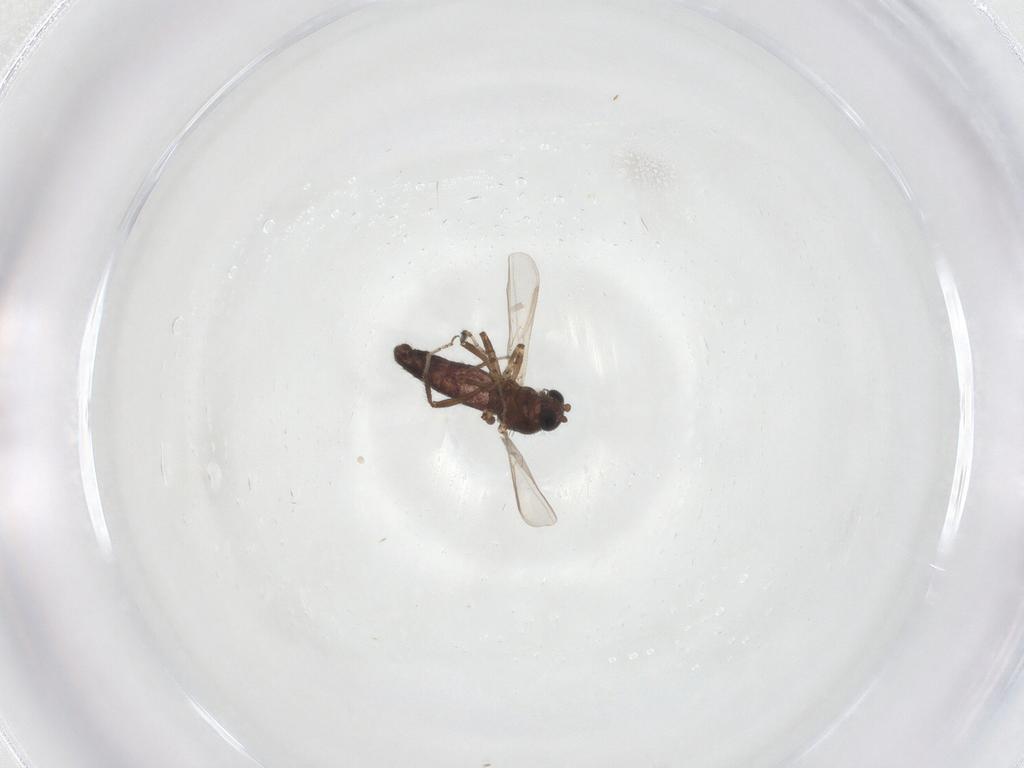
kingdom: Animalia
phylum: Arthropoda
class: Insecta
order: Diptera
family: Ceratopogonidae
